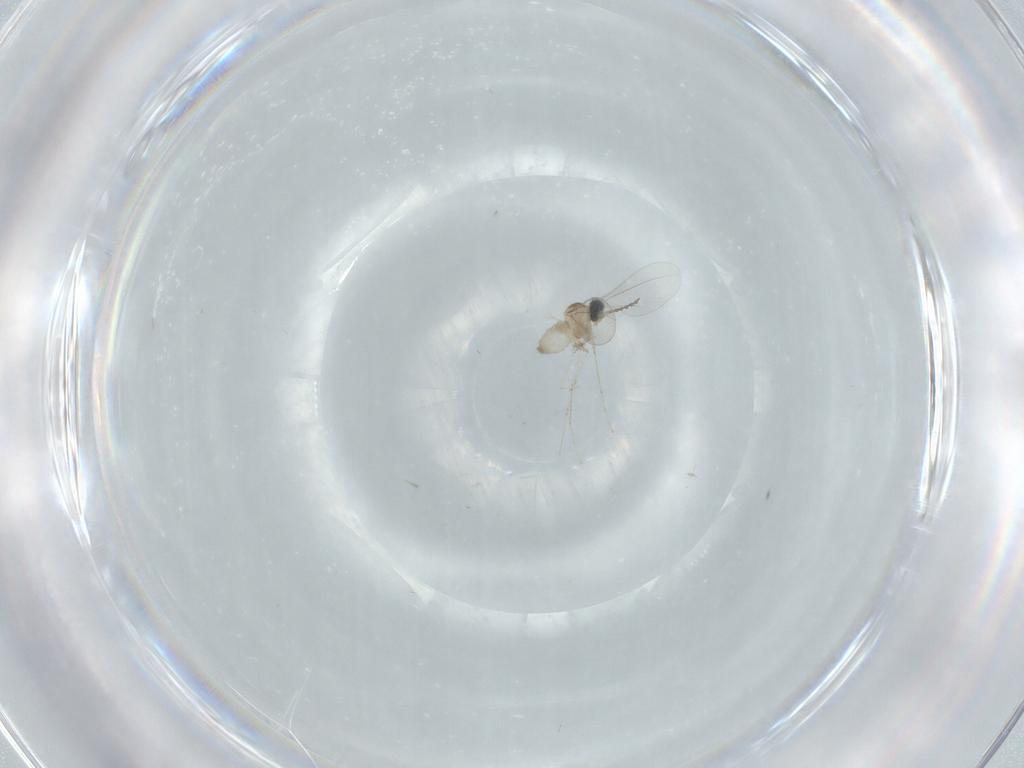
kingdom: Animalia
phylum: Arthropoda
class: Insecta
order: Diptera
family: Cecidomyiidae
